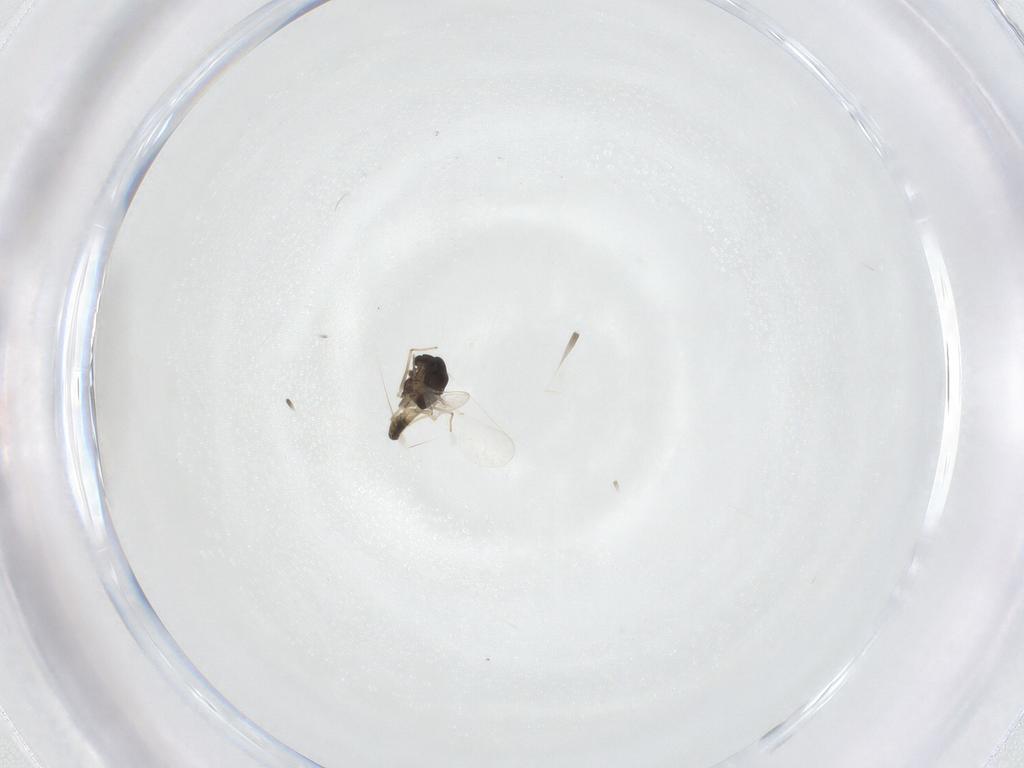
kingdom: Animalia
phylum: Arthropoda
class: Insecta
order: Diptera
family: Chironomidae
